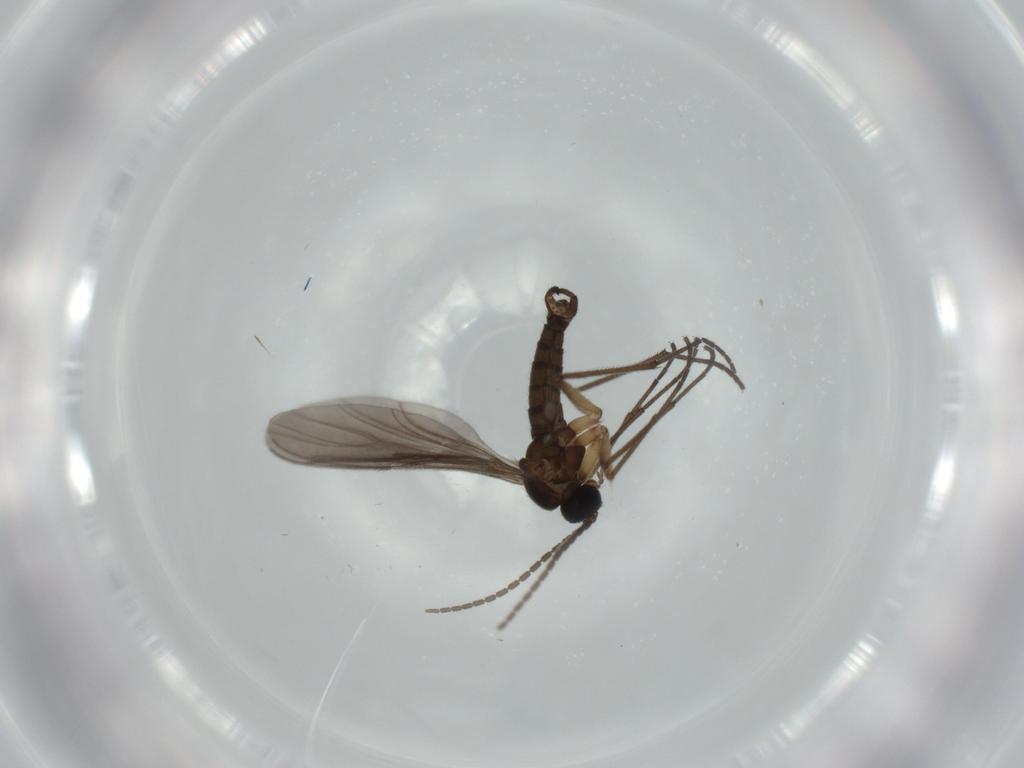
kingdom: Animalia
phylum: Arthropoda
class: Insecta
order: Diptera
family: Sciaridae
